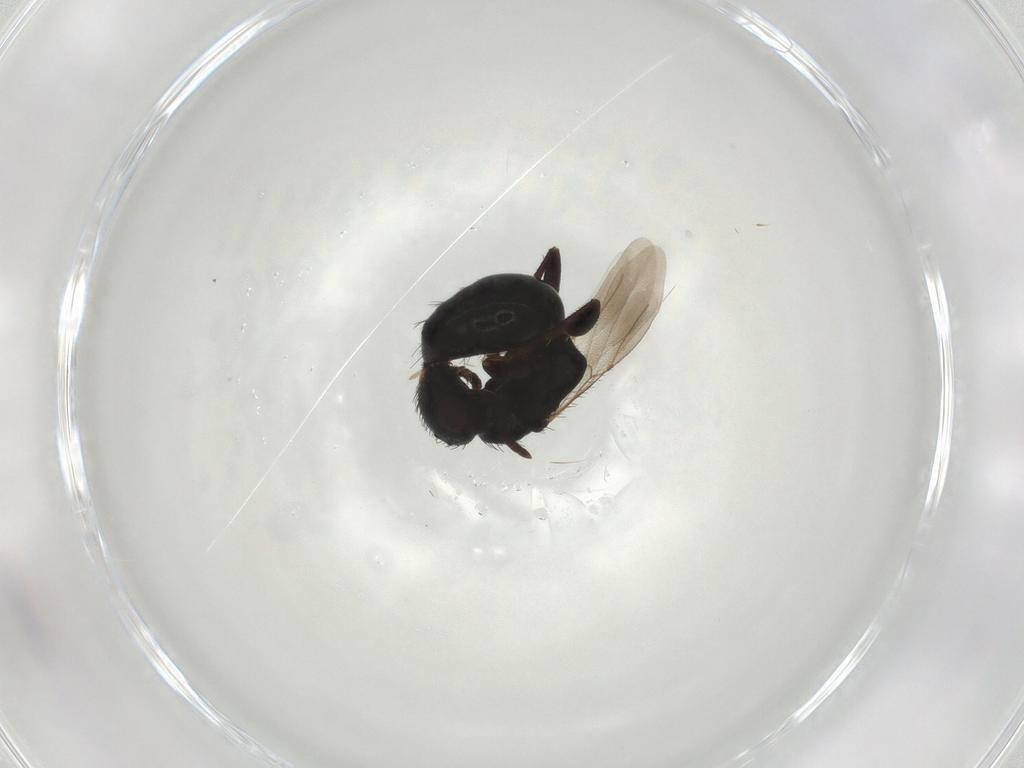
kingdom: Animalia
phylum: Arthropoda
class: Insecta
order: Hymenoptera
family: Bethylidae
